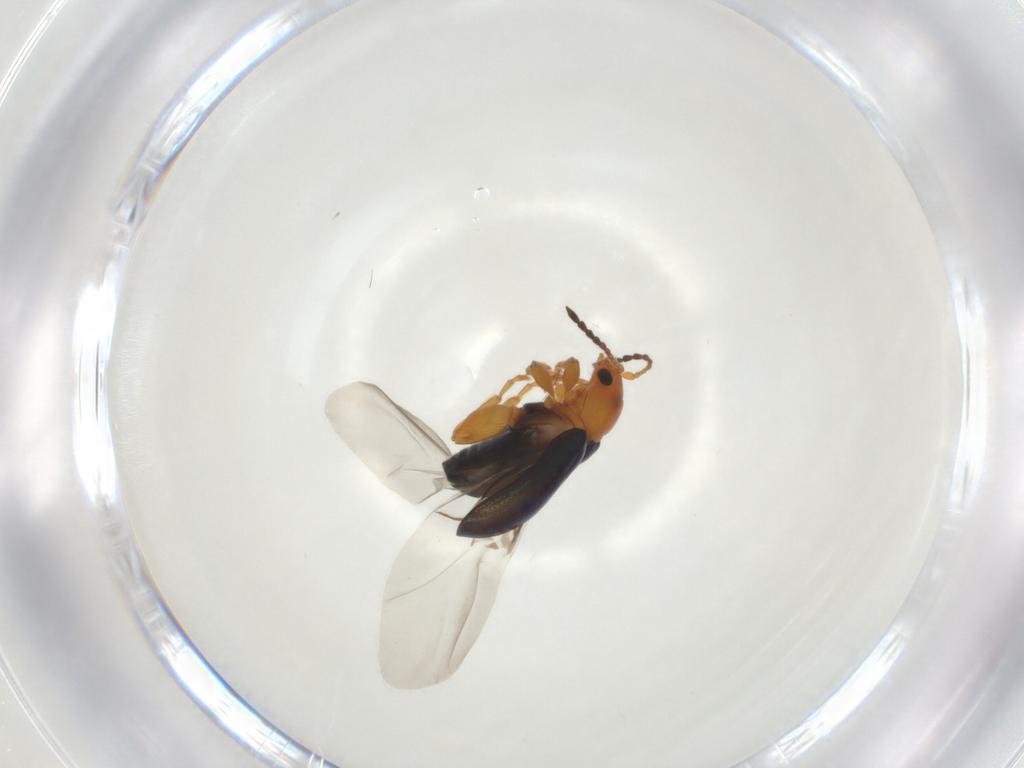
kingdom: Animalia
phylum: Arthropoda
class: Insecta
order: Coleoptera
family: Chrysomelidae
